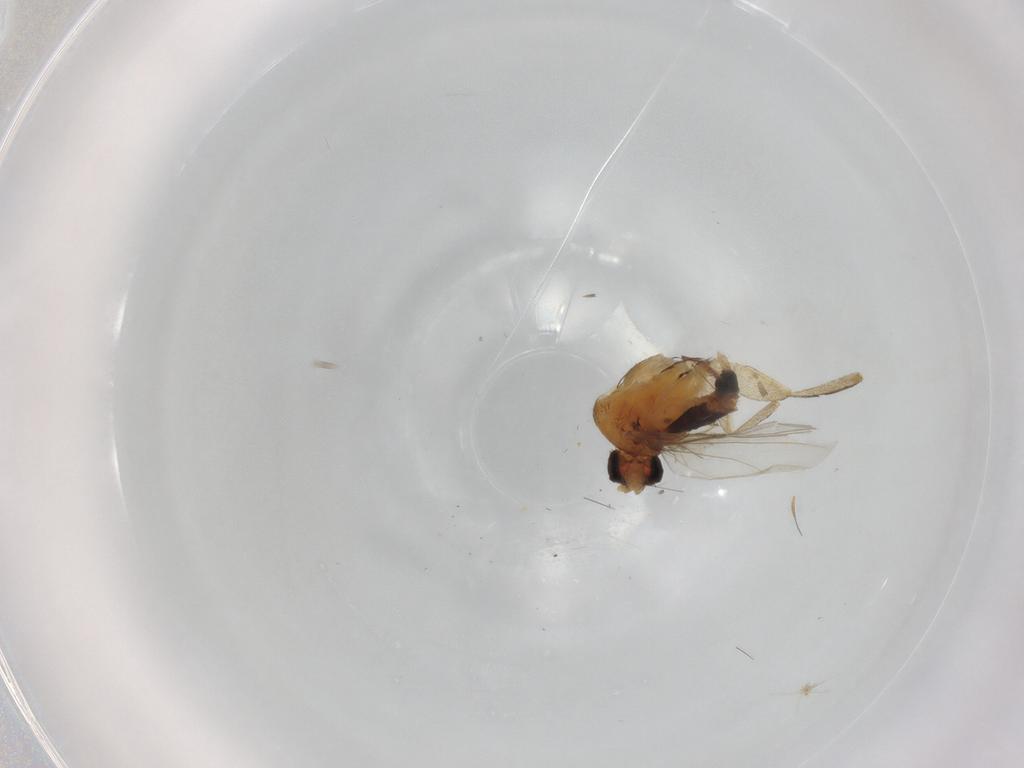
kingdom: Animalia
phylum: Arthropoda
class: Insecta
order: Diptera
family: Phoridae
